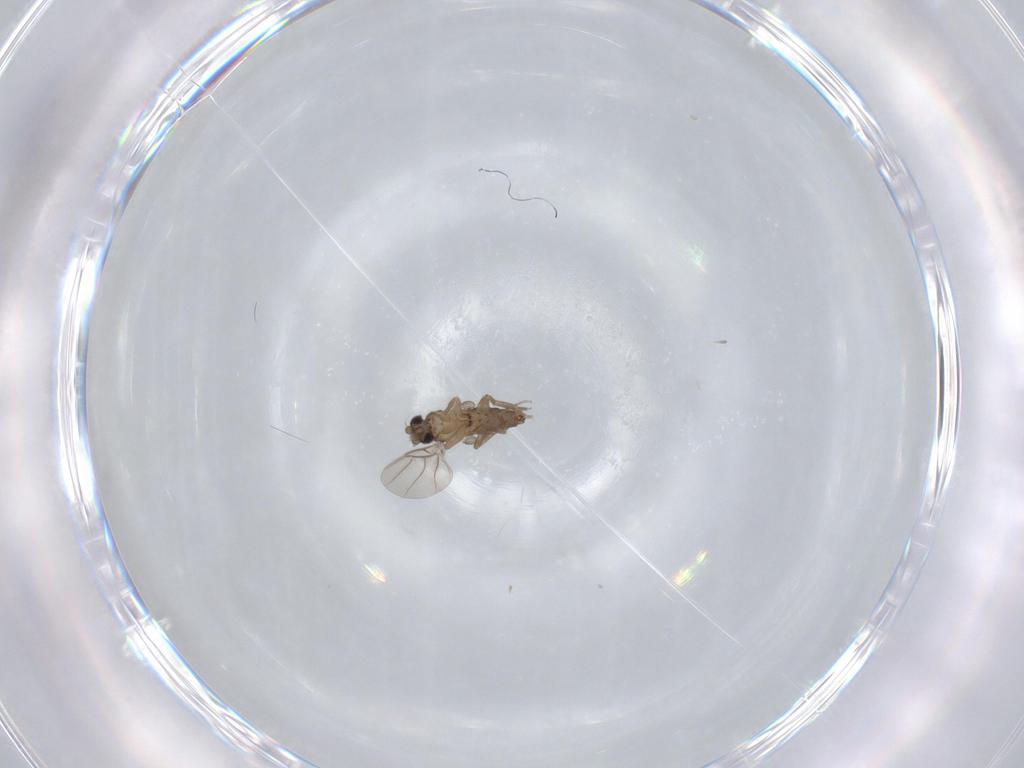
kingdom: Animalia
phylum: Arthropoda
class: Insecta
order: Diptera
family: Phoridae
